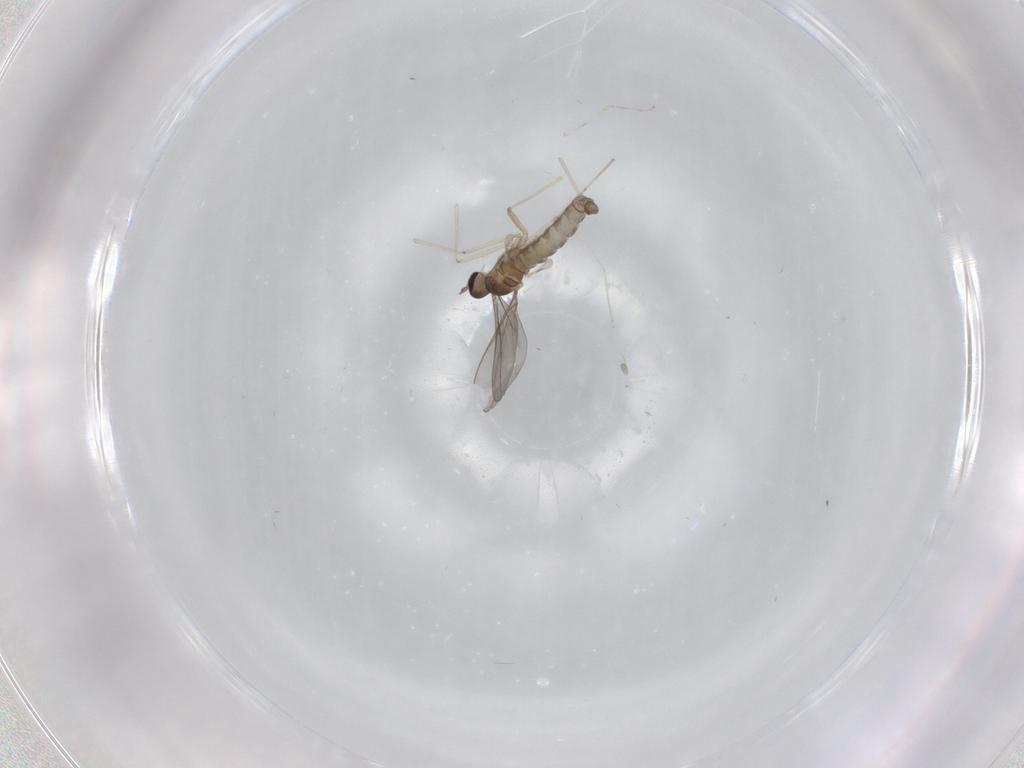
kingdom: Animalia
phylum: Arthropoda
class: Insecta
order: Diptera
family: Cecidomyiidae
